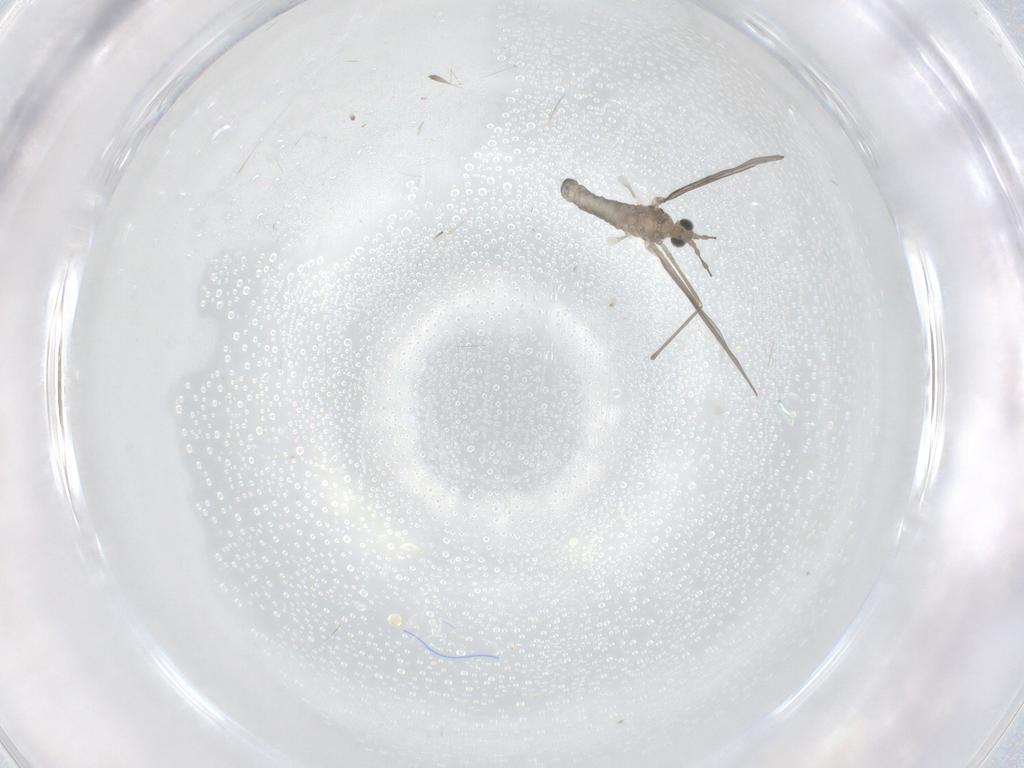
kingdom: Animalia
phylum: Arthropoda
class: Insecta
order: Diptera
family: Cecidomyiidae
